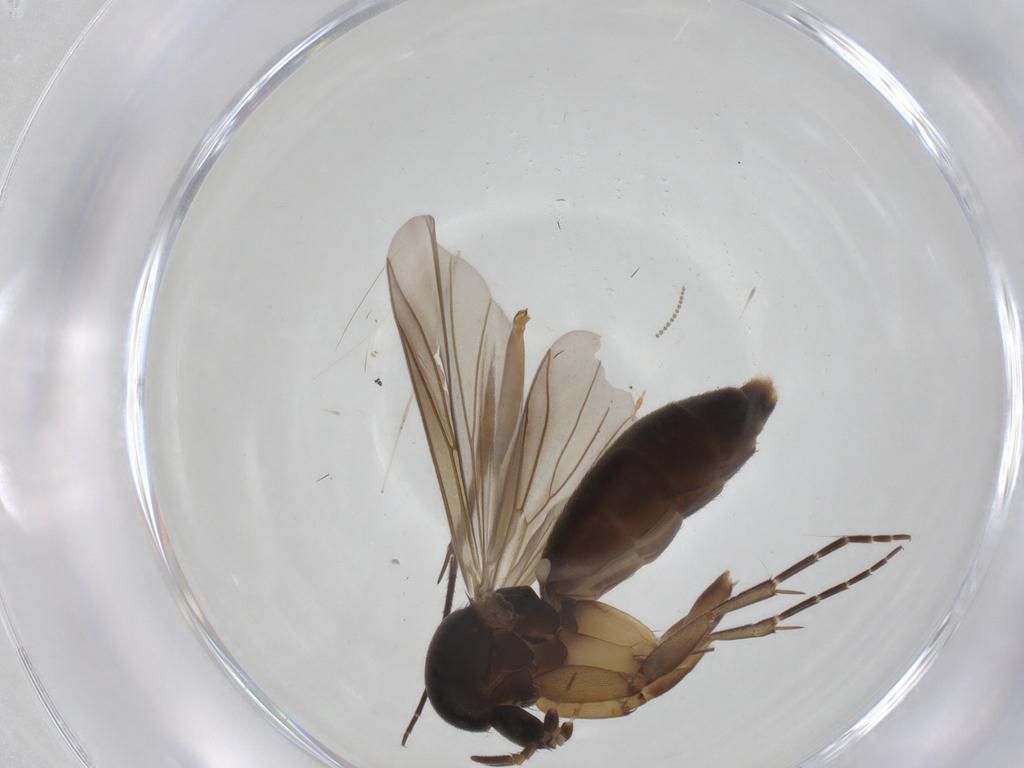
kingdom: Animalia
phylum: Arthropoda
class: Insecta
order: Diptera
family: Mycetophilidae
